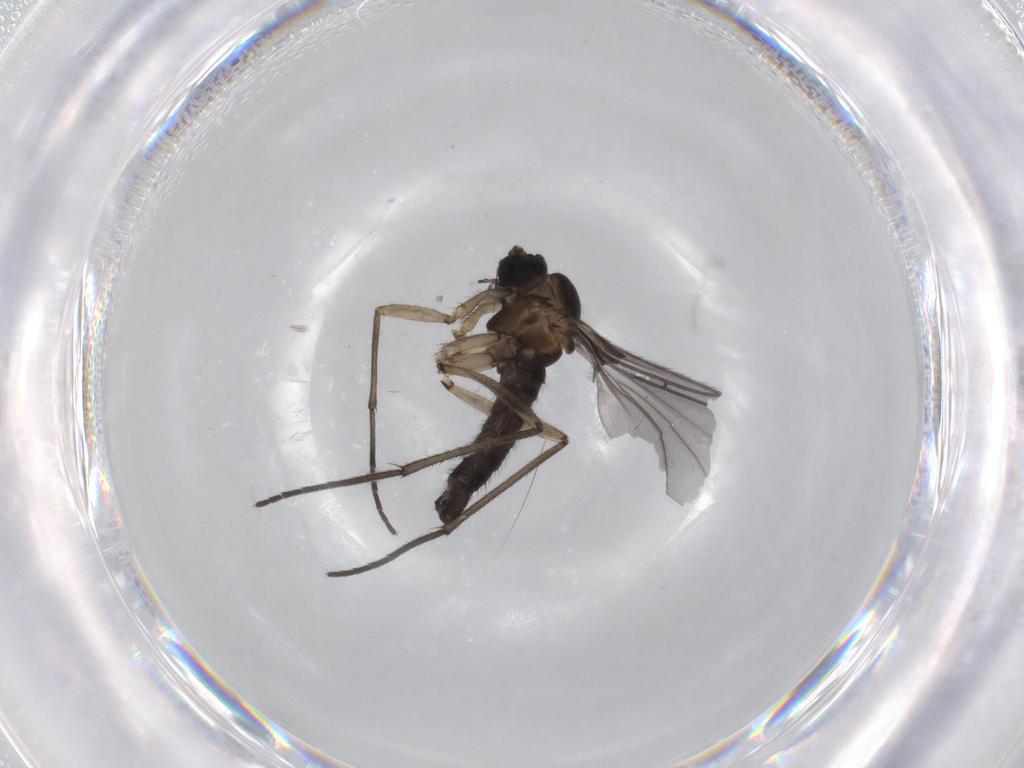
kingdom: Animalia
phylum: Arthropoda
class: Insecta
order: Diptera
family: Sciaridae
